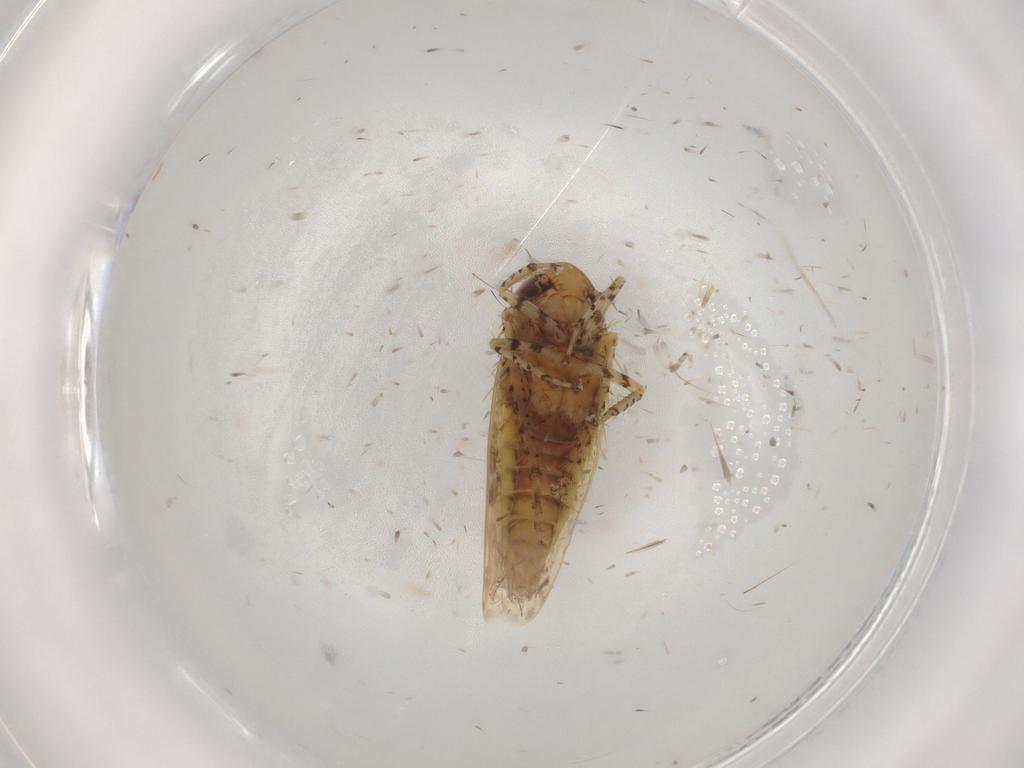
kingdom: Animalia
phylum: Arthropoda
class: Insecta
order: Hemiptera
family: Cicadellidae
